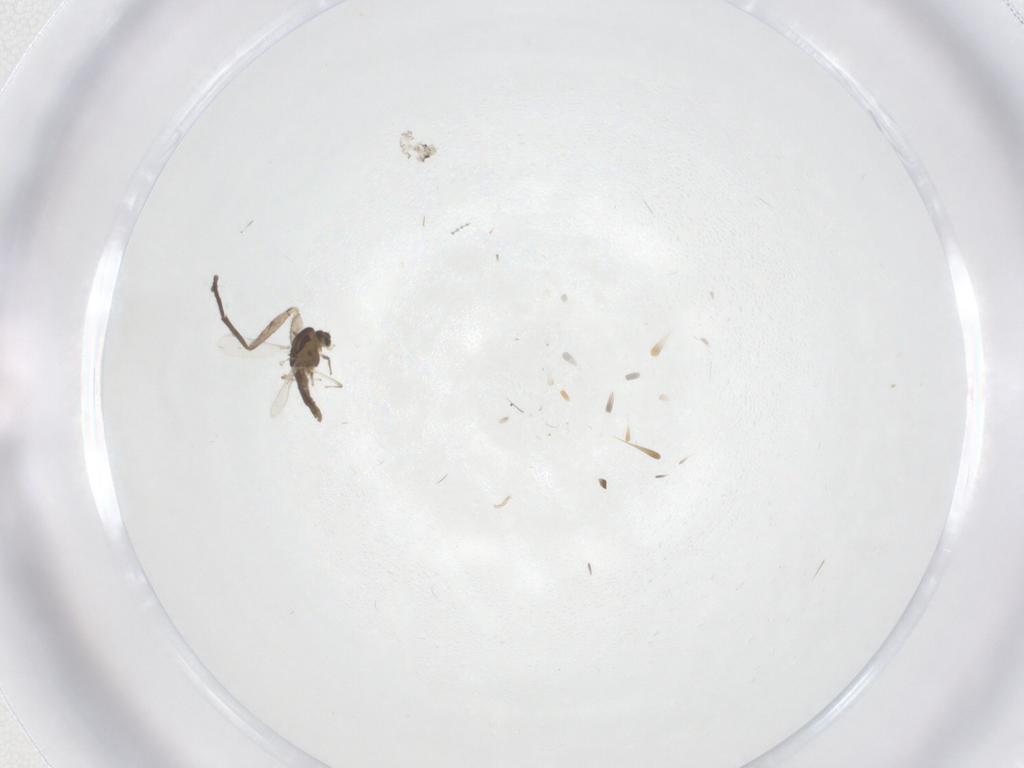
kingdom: Animalia
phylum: Arthropoda
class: Insecta
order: Diptera
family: Chironomidae
